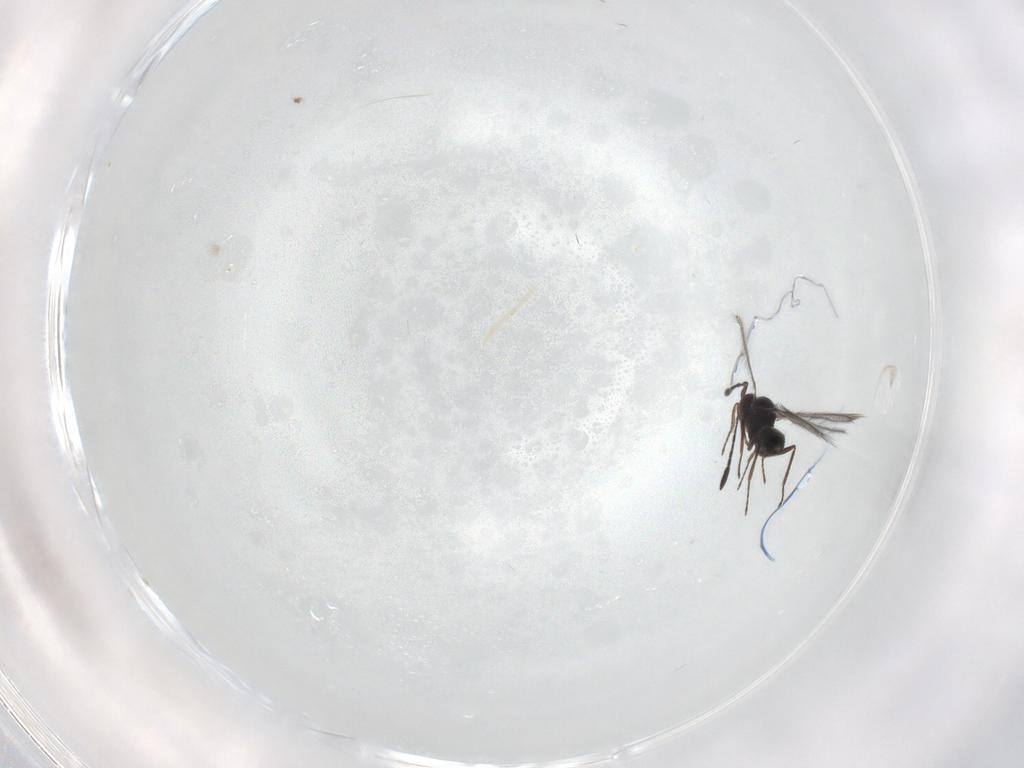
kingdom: Animalia
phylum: Arthropoda
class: Insecta
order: Hymenoptera
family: Mymaridae
